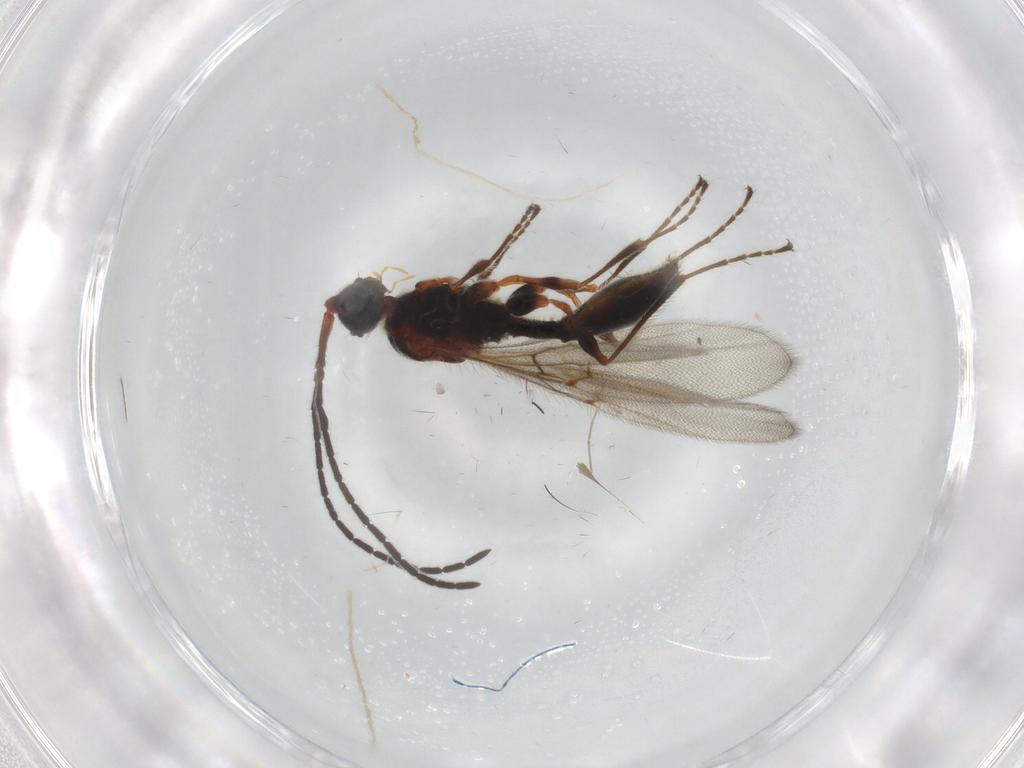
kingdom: Animalia
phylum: Arthropoda
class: Insecta
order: Hymenoptera
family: Diapriidae
